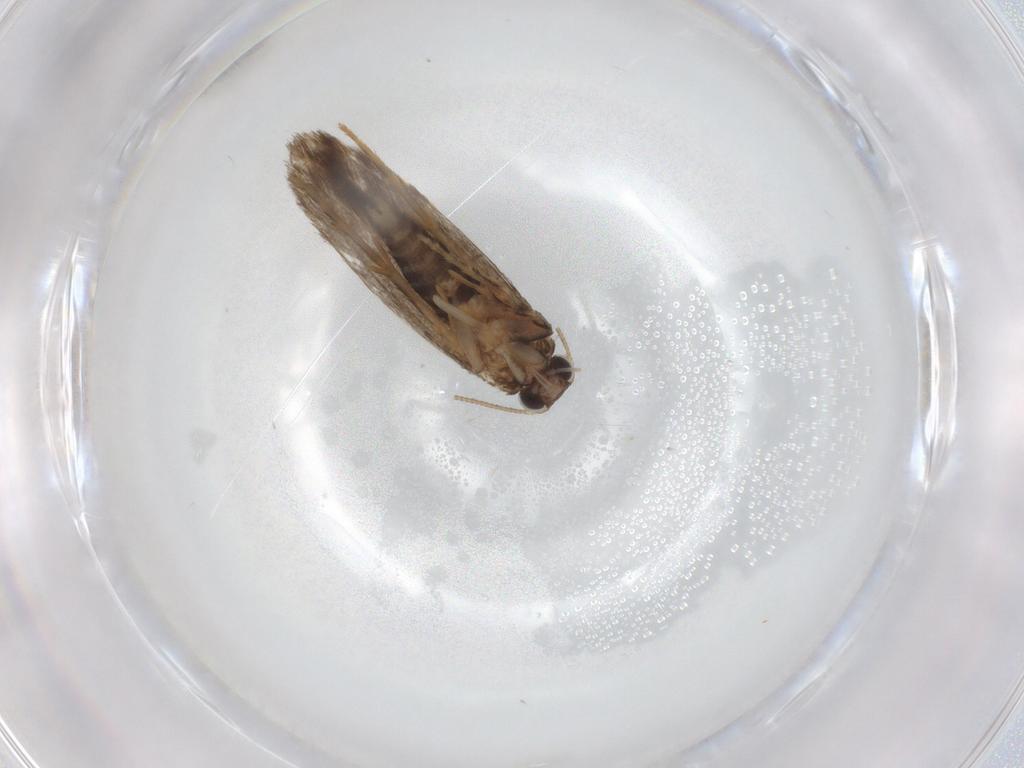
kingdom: Animalia
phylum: Arthropoda
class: Insecta
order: Lepidoptera
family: Tineidae
